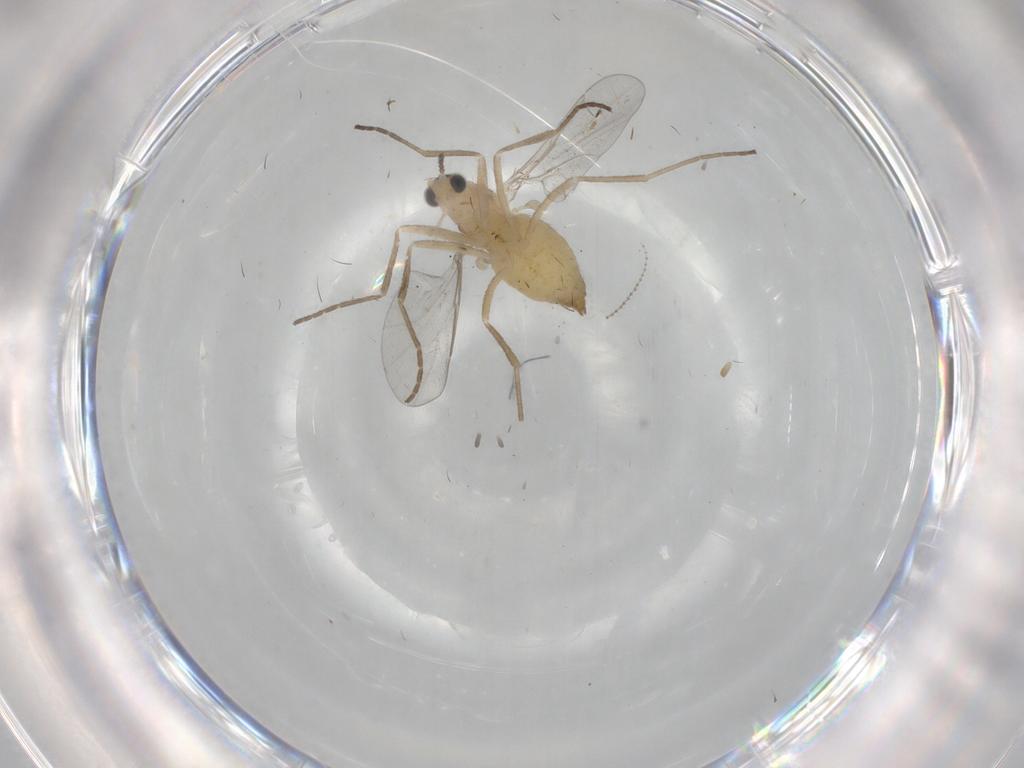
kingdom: Animalia
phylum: Arthropoda
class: Insecta
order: Diptera
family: Cecidomyiidae
